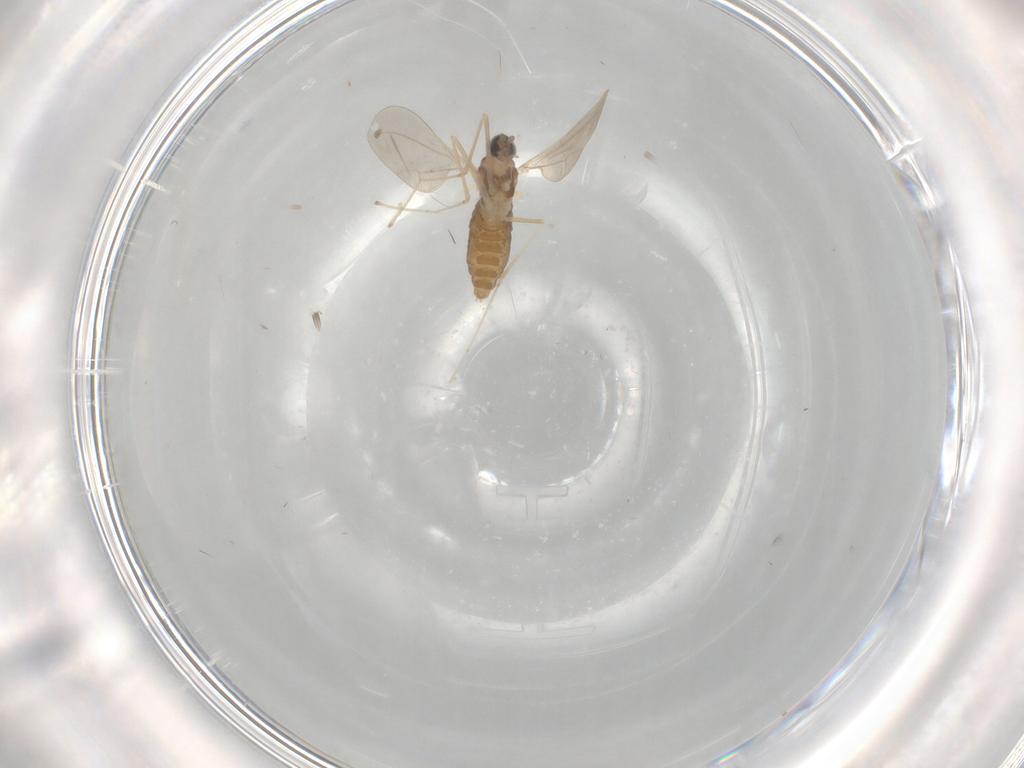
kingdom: Animalia
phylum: Arthropoda
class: Insecta
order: Diptera
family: Cecidomyiidae
